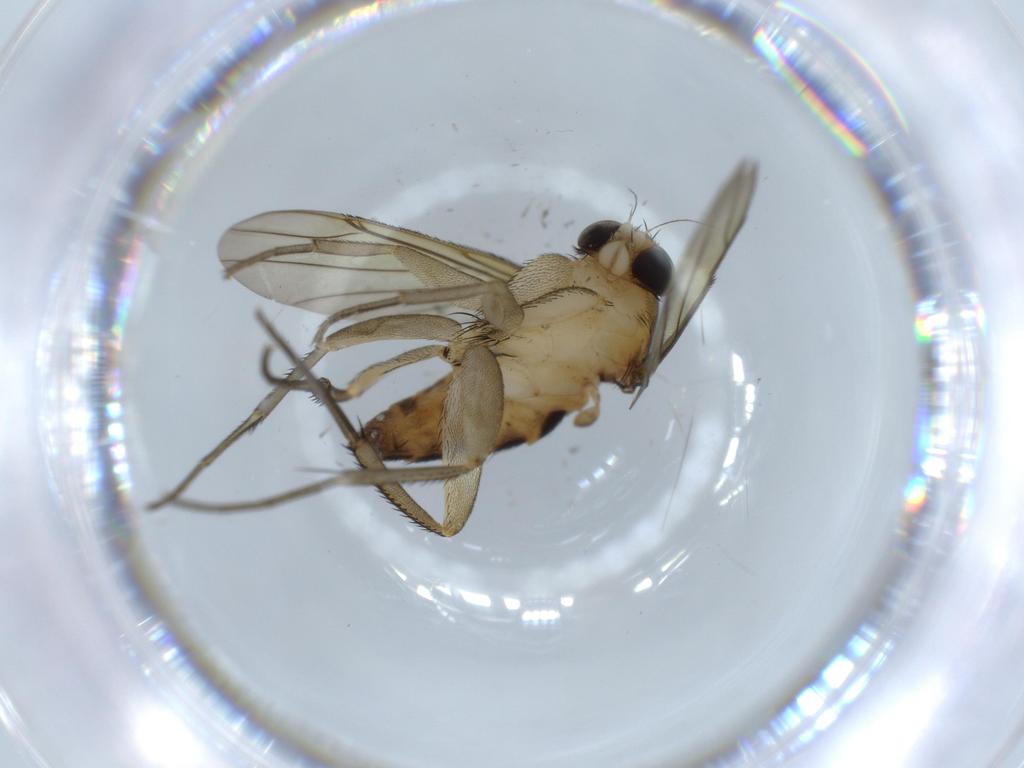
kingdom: Animalia
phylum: Arthropoda
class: Insecta
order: Diptera
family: Phoridae
